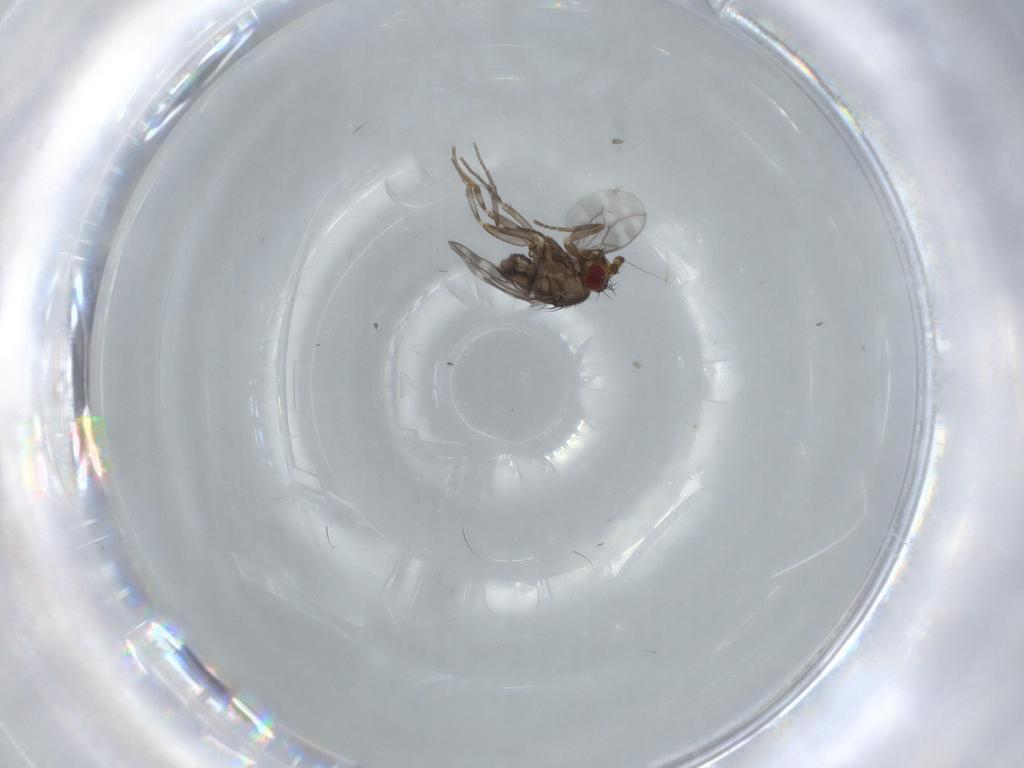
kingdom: Animalia
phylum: Arthropoda
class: Insecta
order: Diptera
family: Sphaeroceridae
